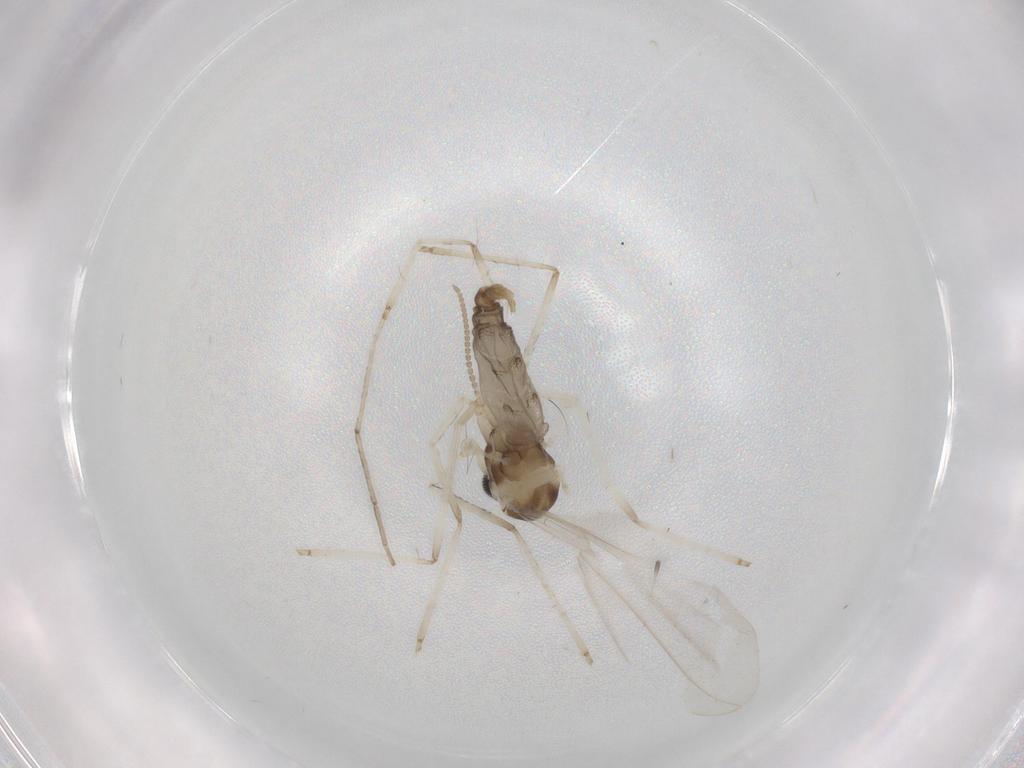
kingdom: Animalia
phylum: Arthropoda
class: Insecta
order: Diptera
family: Cecidomyiidae
